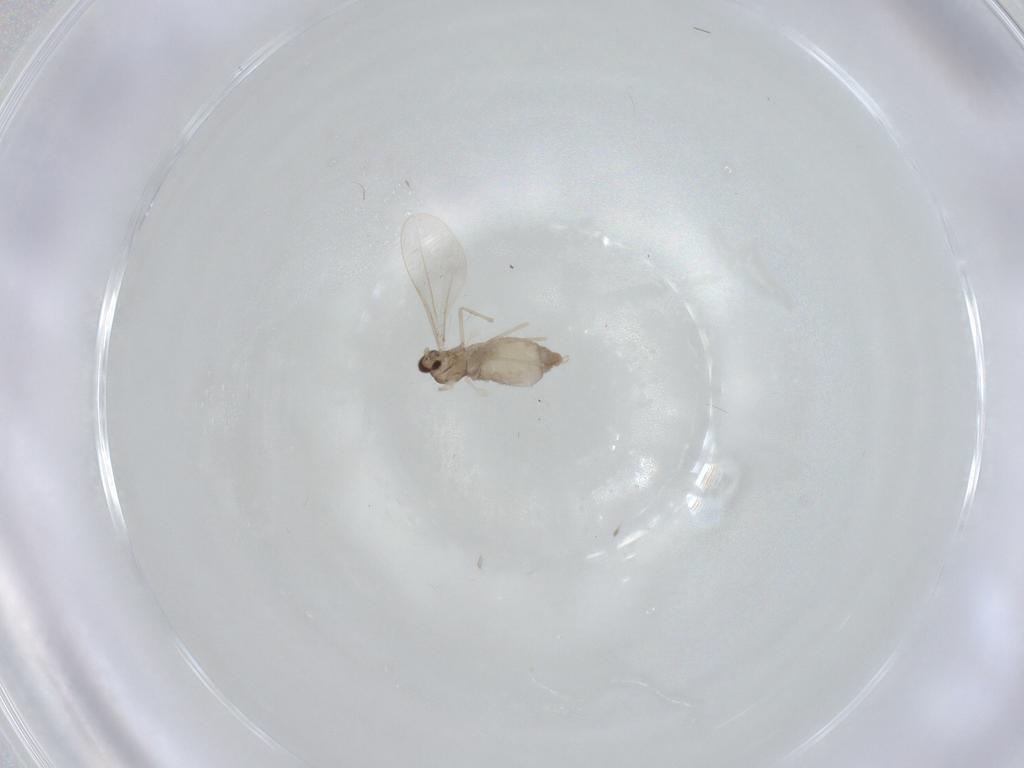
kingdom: Animalia
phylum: Arthropoda
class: Insecta
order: Diptera
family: Cecidomyiidae
